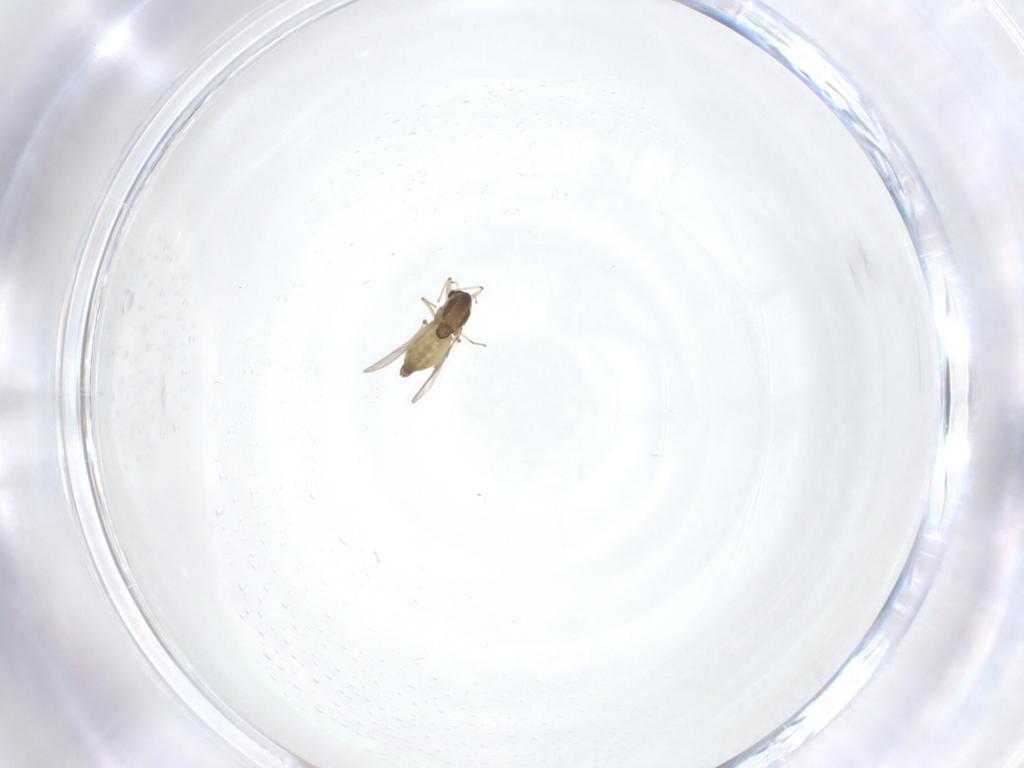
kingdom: Animalia
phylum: Arthropoda
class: Insecta
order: Diptera
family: Chironomidae
